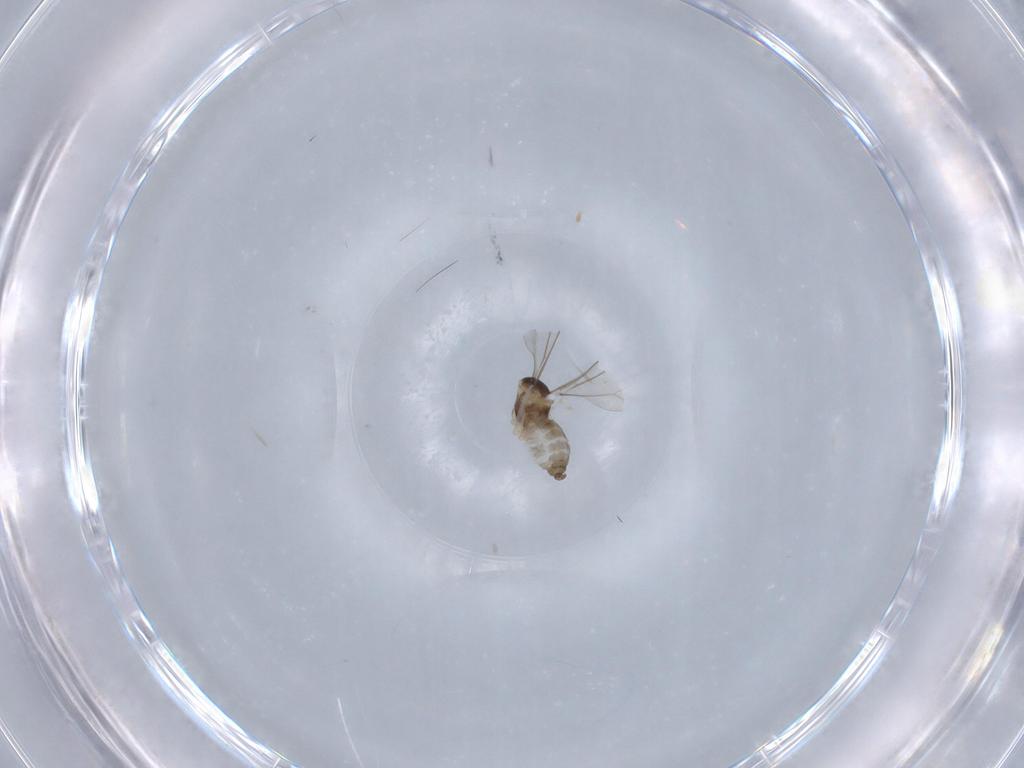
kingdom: Animalia
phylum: Arthropoda
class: Insecta
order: Diptera
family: Cecidomyiidae
